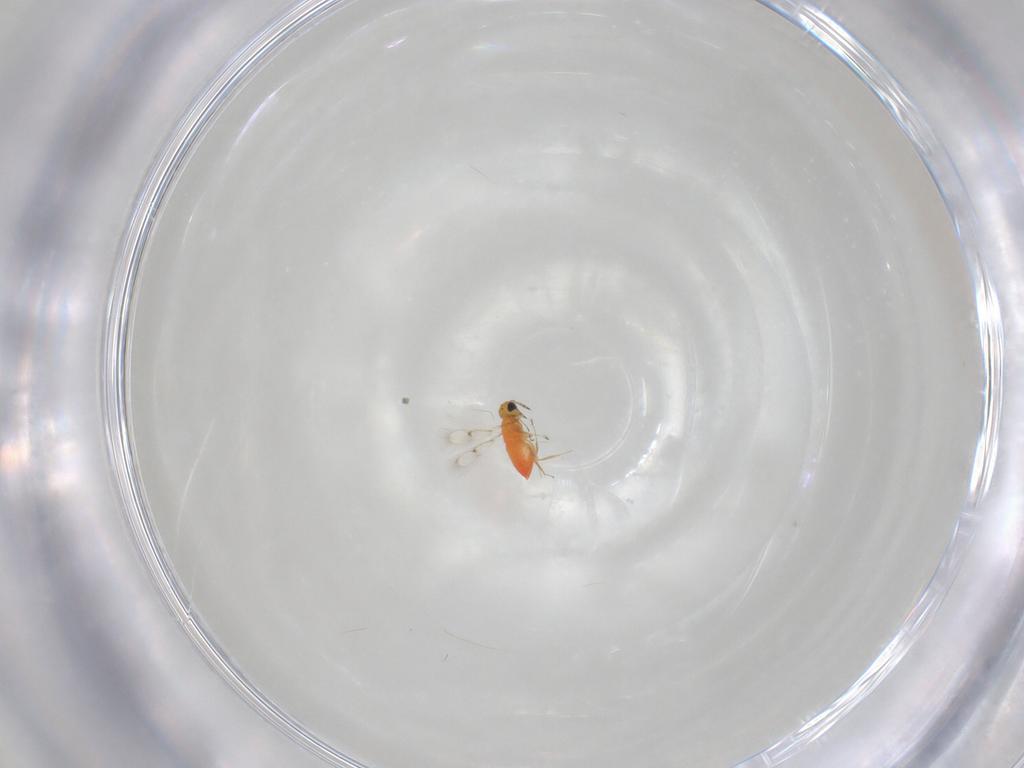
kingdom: Animalia
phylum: Arthropoda
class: Insecta
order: Hymenoptera
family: Trichogrammatidae
